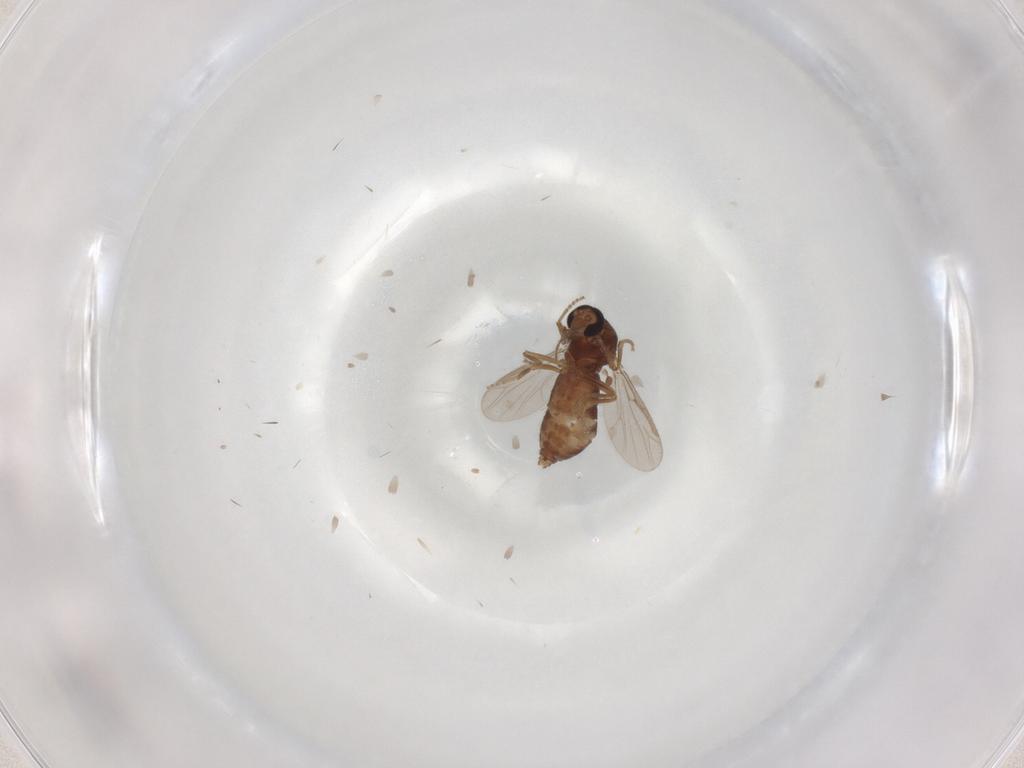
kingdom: Animalia
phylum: Arthropoda
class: Insecta
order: Diptera
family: Ceratopogonidae
